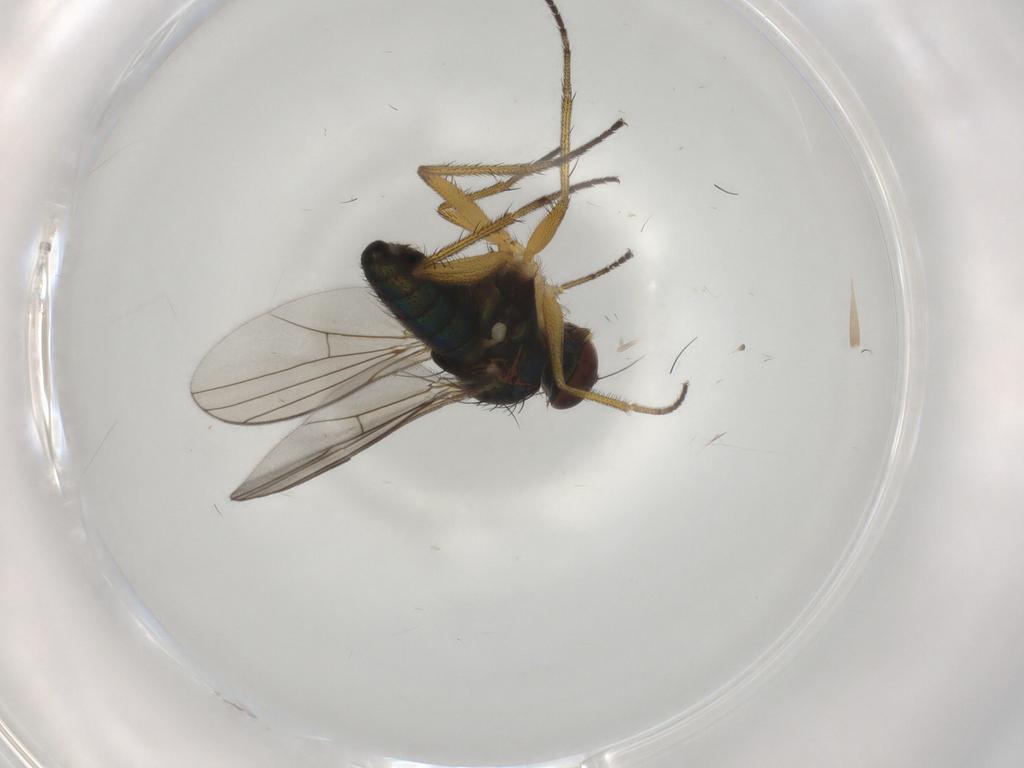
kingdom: Animalia
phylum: Arthropoda
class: Insecta
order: Diptera
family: Dolichopodidae
